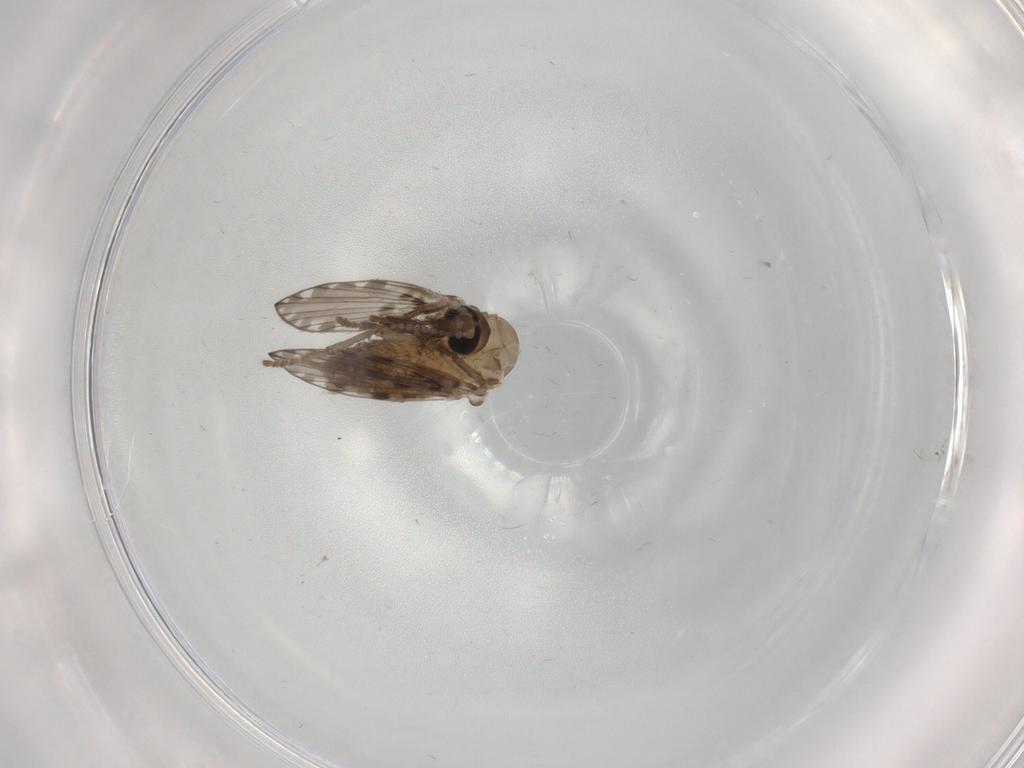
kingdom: Animalia
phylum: Arthropoda
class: Insecta
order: Diptera
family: Psychodidae
